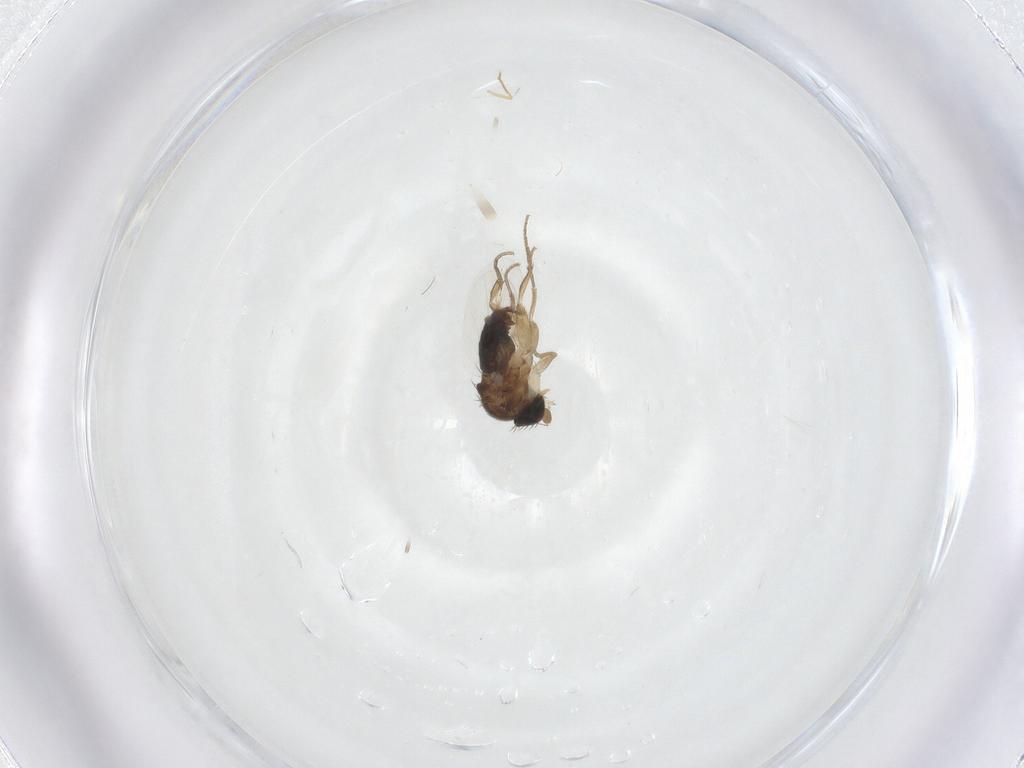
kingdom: Animalia
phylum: Arthropoda
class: Insecta
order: Diptera
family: Phoridae
